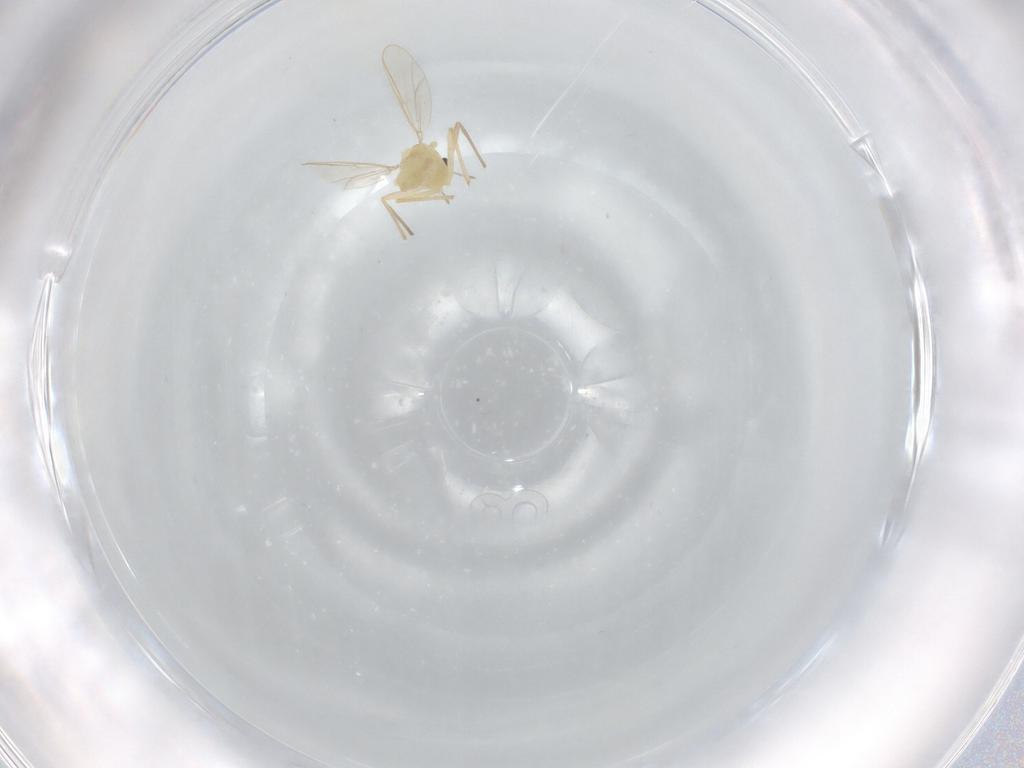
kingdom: Animalia
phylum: Arthropoda
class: Insecta
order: Diptera
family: Chironomidae
